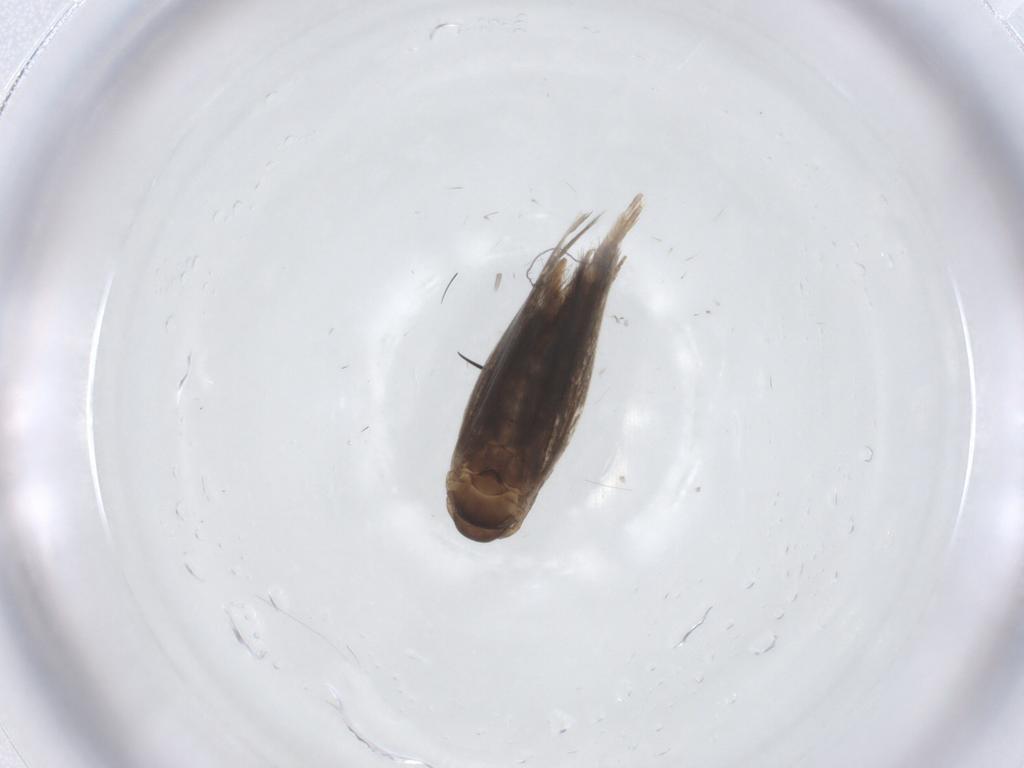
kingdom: Animalia
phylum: Arthropoda
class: Insecta
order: Lepidoptera
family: Elachistidae
